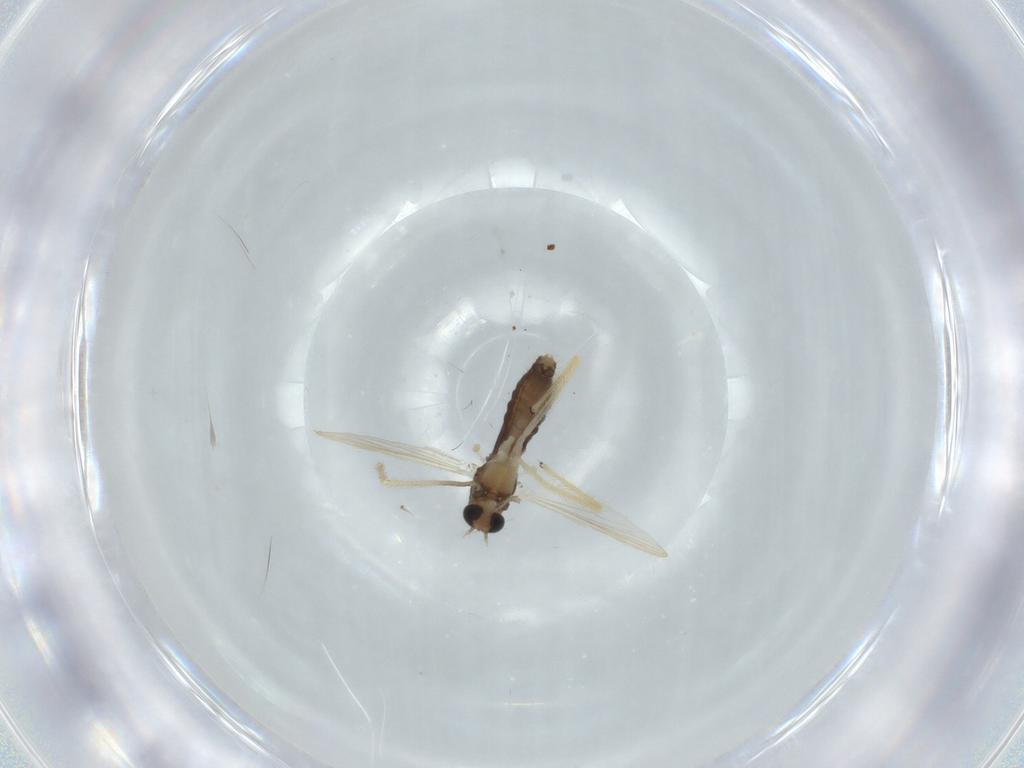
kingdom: Animalia
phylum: Arthropoda
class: Insecta
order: Diptera
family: Chironomidae
